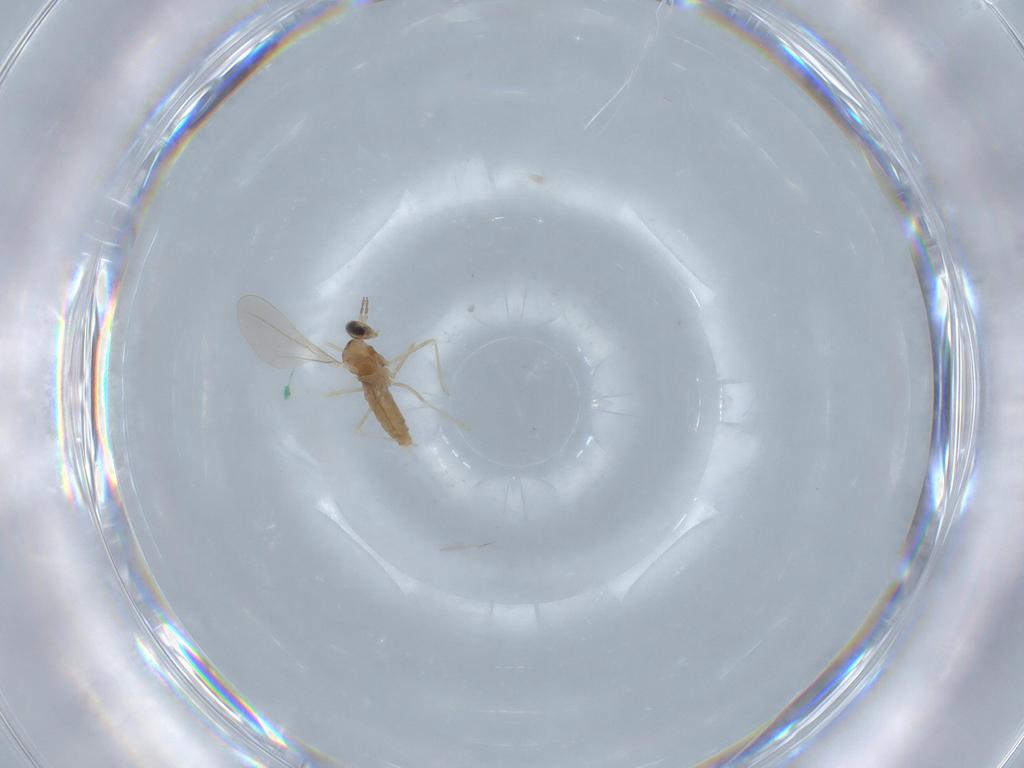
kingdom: Animalia
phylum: Arthropoda
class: Insecta
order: Diptera
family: Cecidomyiidae
